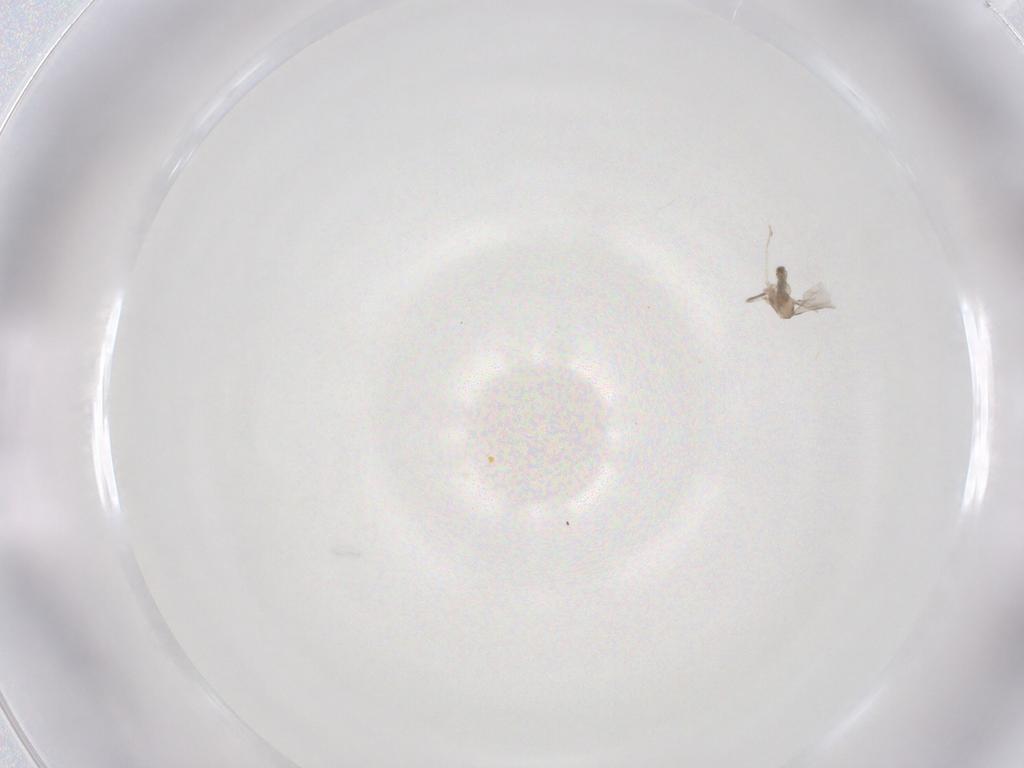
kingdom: Animalia
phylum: Arthropoda
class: Insecta
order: Diptera
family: Cecidomyiidae
